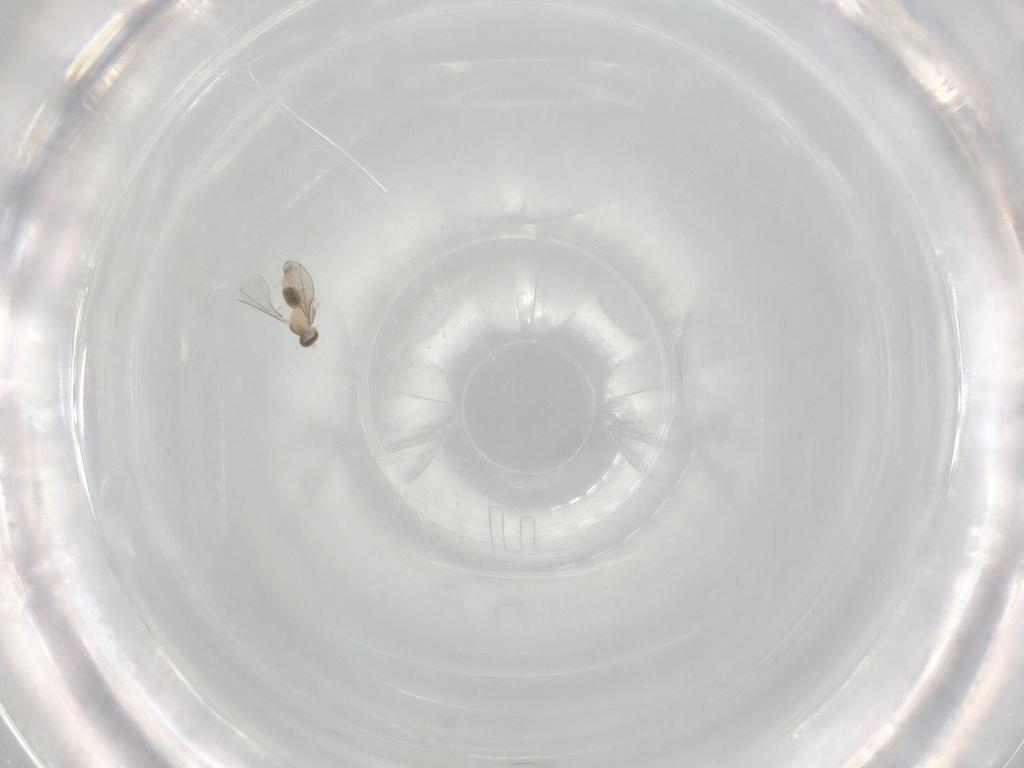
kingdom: Animalia
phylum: Arthropoda
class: Insecta
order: Diptera
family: Cecidomyiidae
